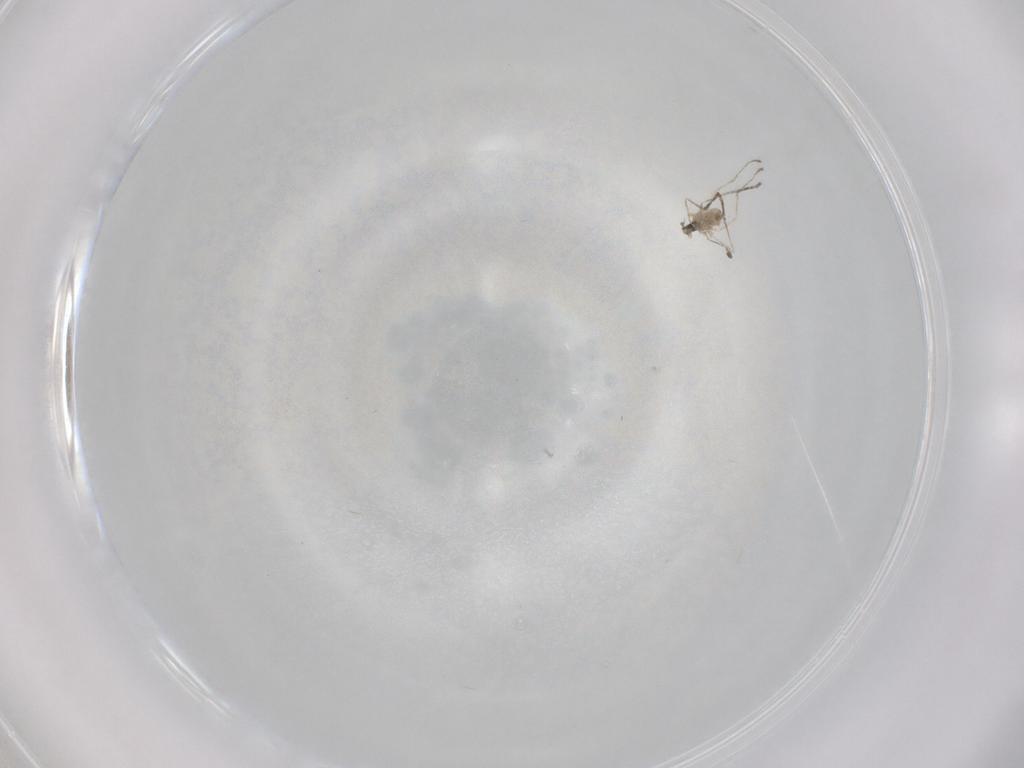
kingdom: Animalia
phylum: Arthropoda
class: Insecta
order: Diptera
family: Cecidomyiidae
